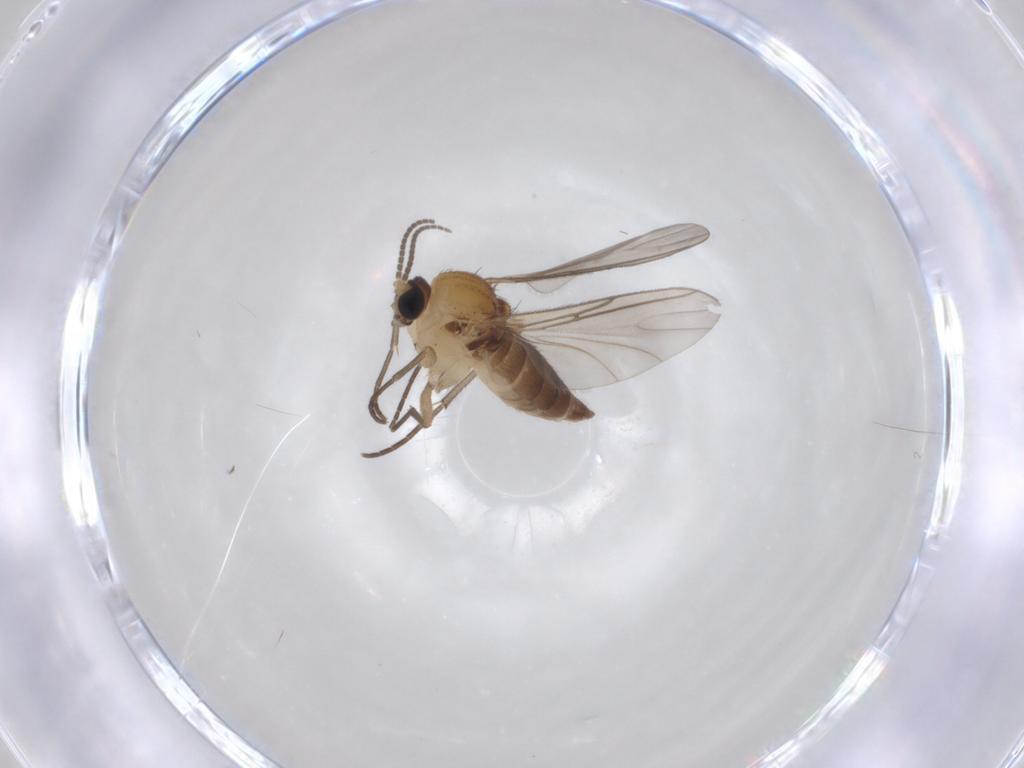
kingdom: Animalia
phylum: Arthropoda
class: Insecta
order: Diptera
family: Sciaridae
